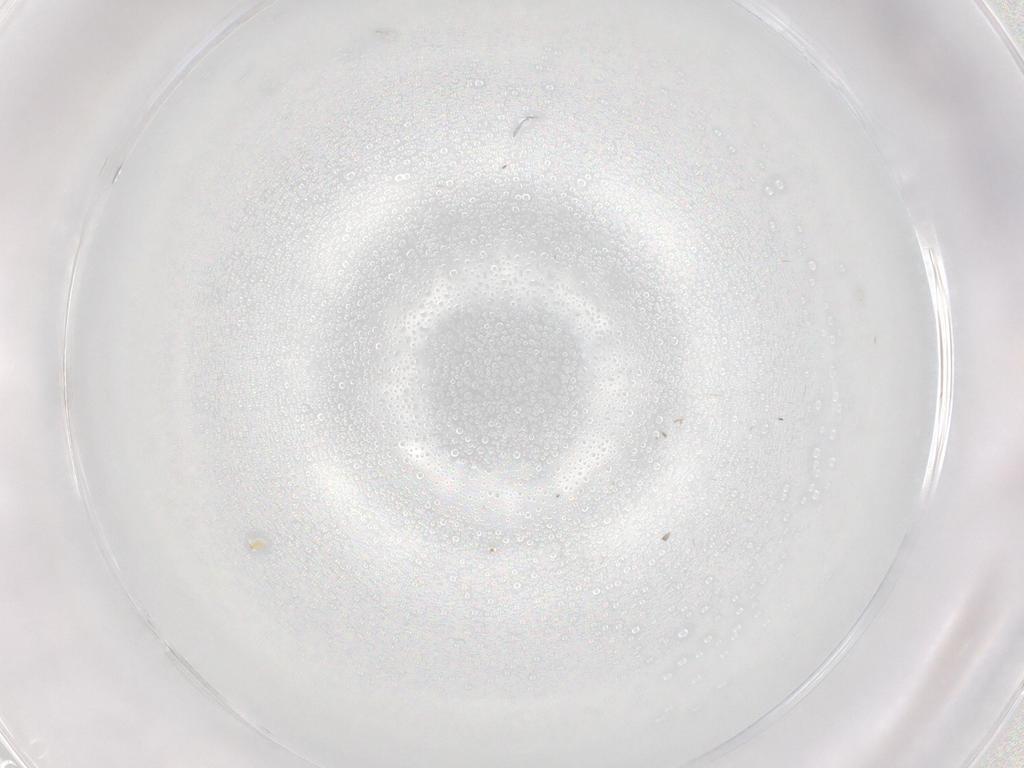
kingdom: Animalia
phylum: Arthropoda
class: Insecta
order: Diptera
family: Cecidomyiidae
